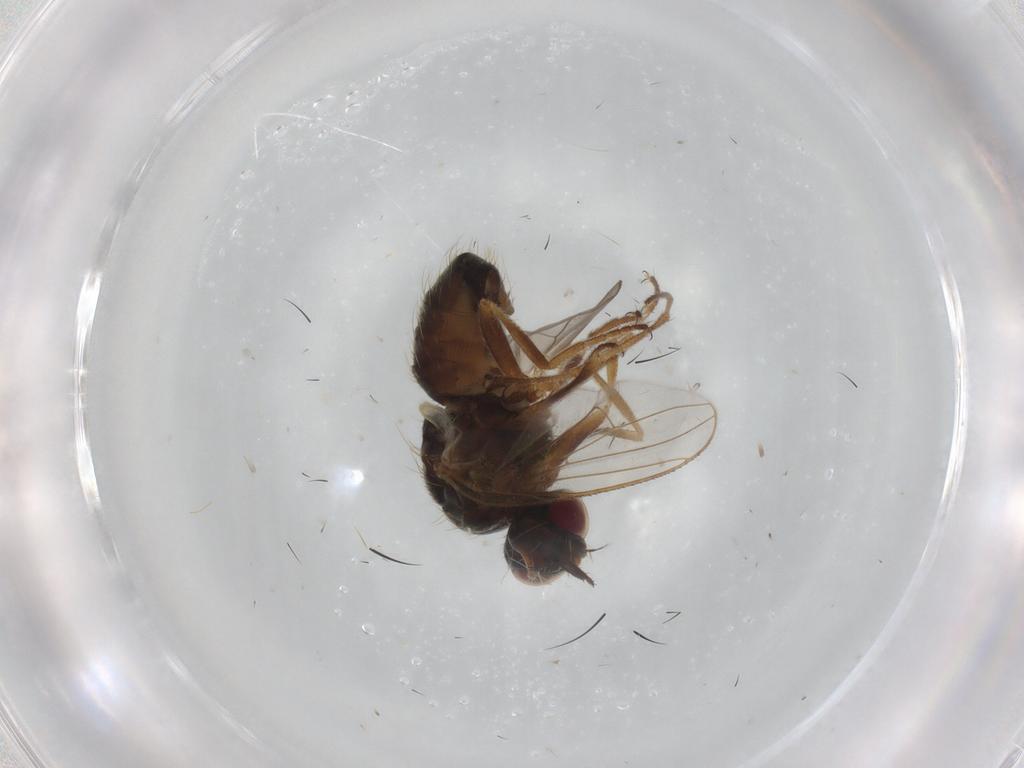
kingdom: Animalia
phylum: Arthropoda
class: Insecta
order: Diptera
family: Muscidae
